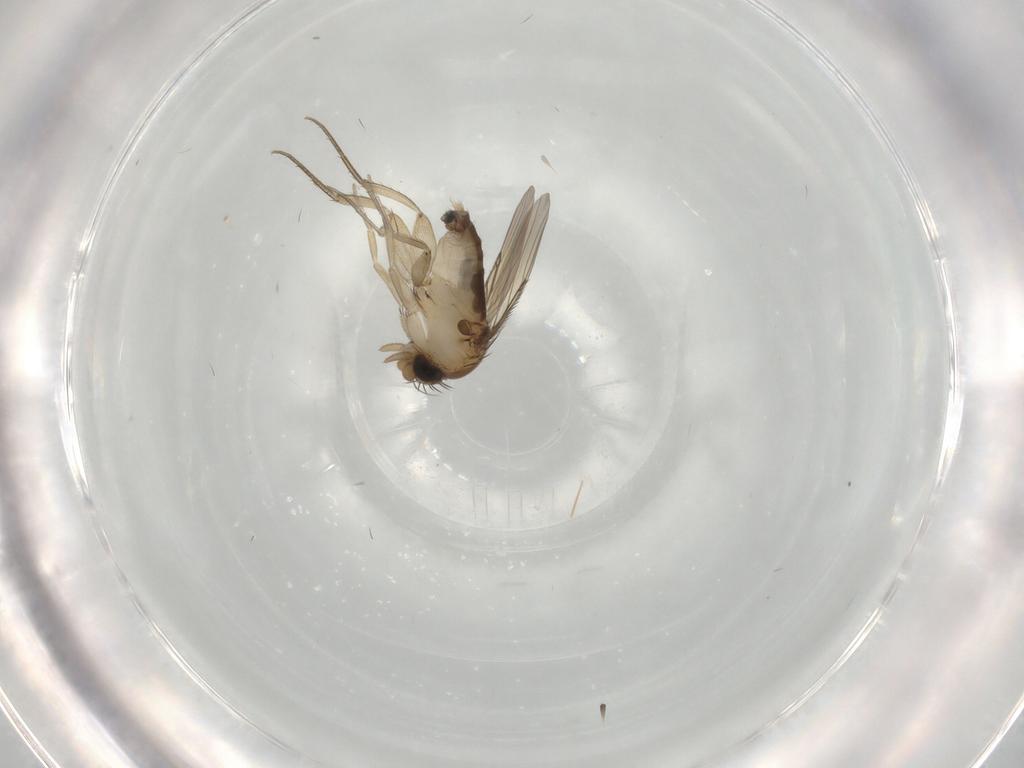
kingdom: Animalia
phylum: Arthropoda
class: Insecta
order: Diptera
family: Phoridae
